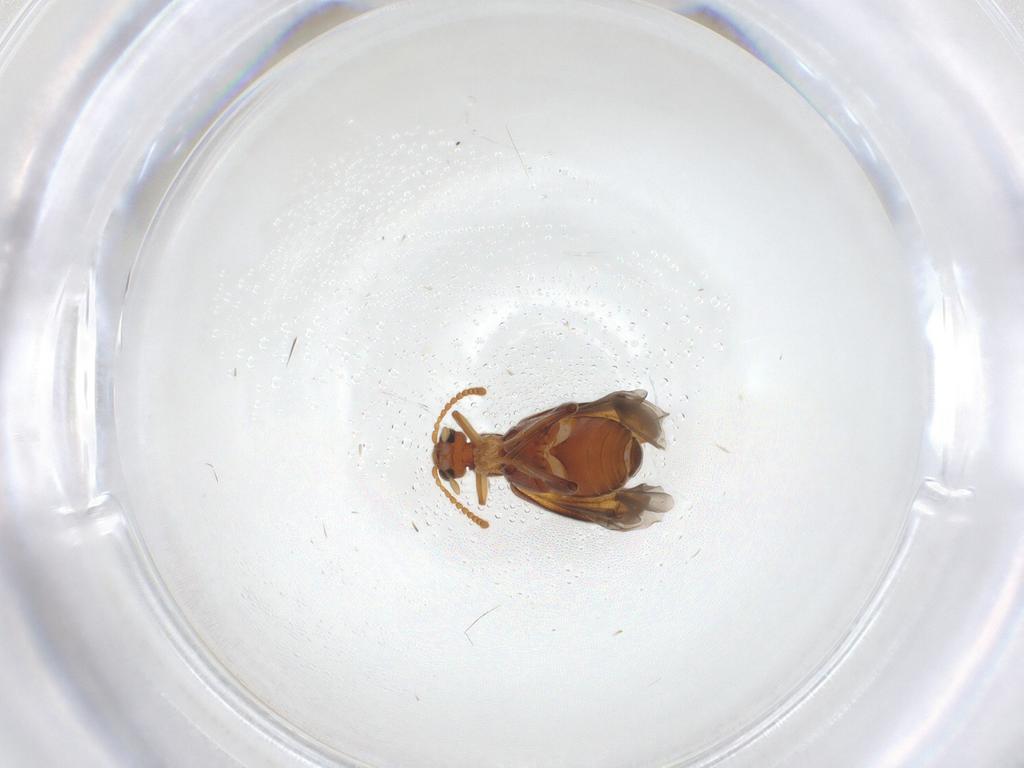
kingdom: Animalia
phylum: Arthropoda
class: Insecta
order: Coleoptera
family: Aderidae
